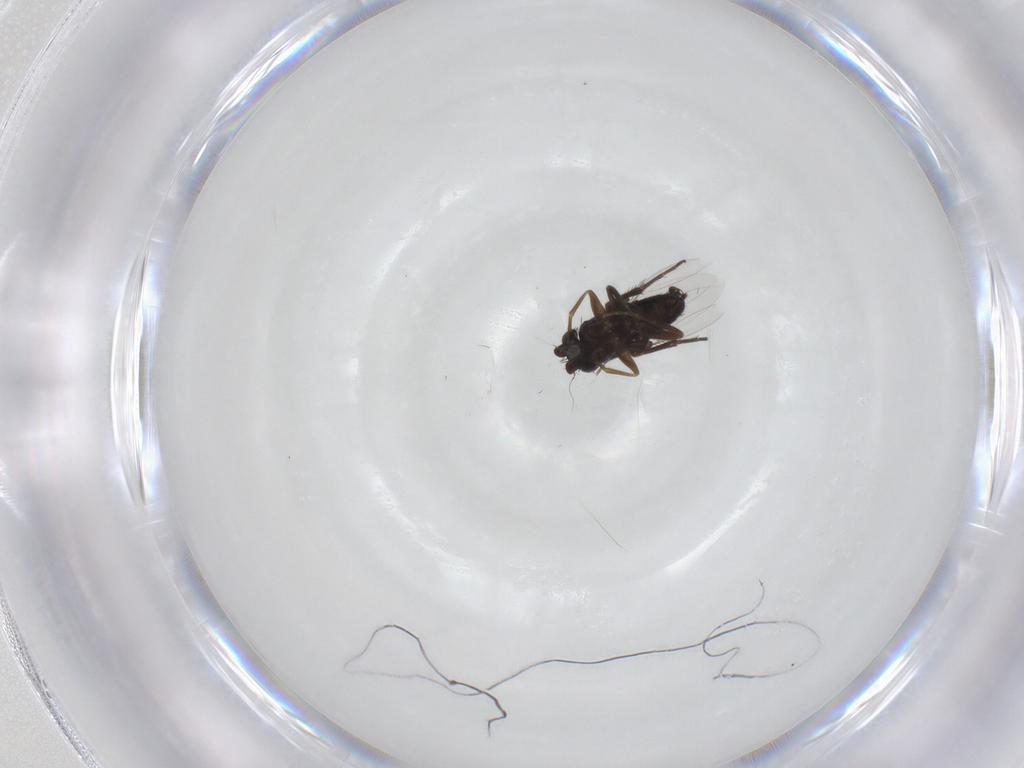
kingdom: Animalia
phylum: Arthropoda
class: Insecta
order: Diptera
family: Phoridae
